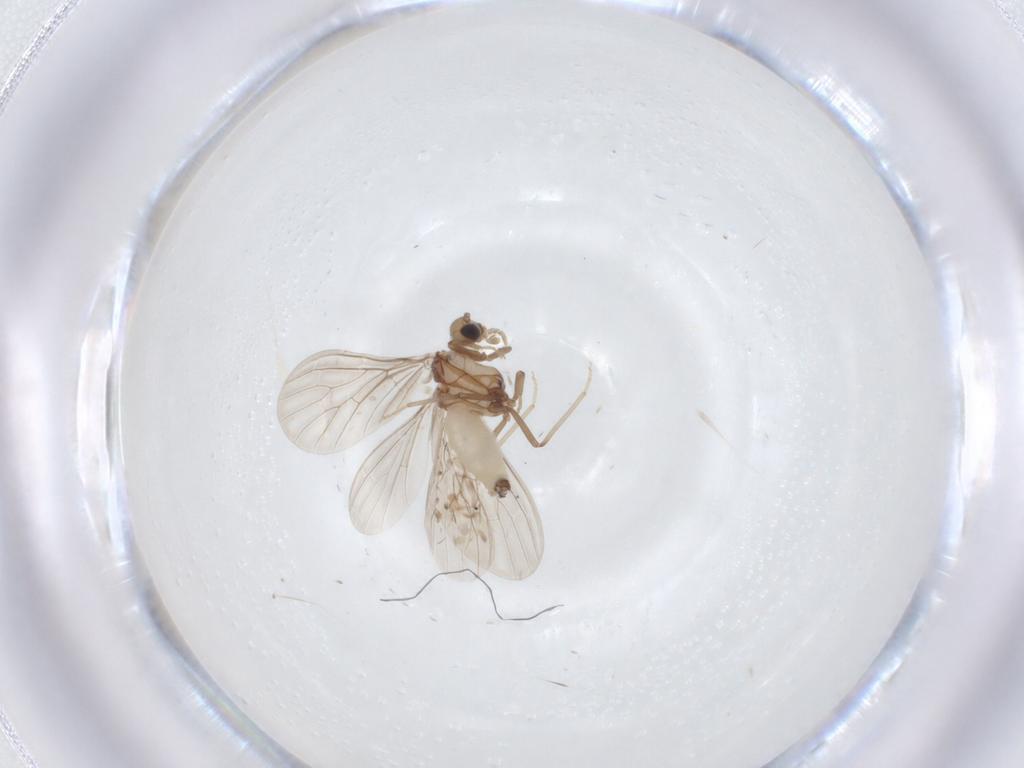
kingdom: Animalia
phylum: Arthropoda
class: Insecta
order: Neuroptera
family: Coniopterygidae
